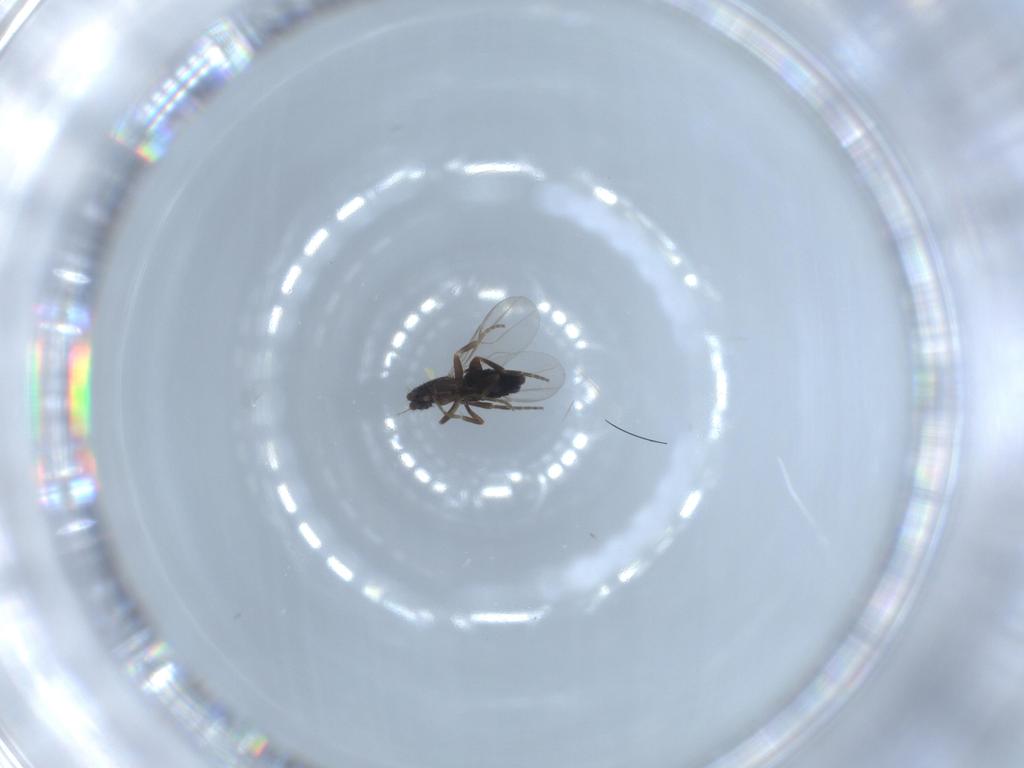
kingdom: Animalia
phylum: Arthropoda
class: Insecta
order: Diptera
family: Phoridae
